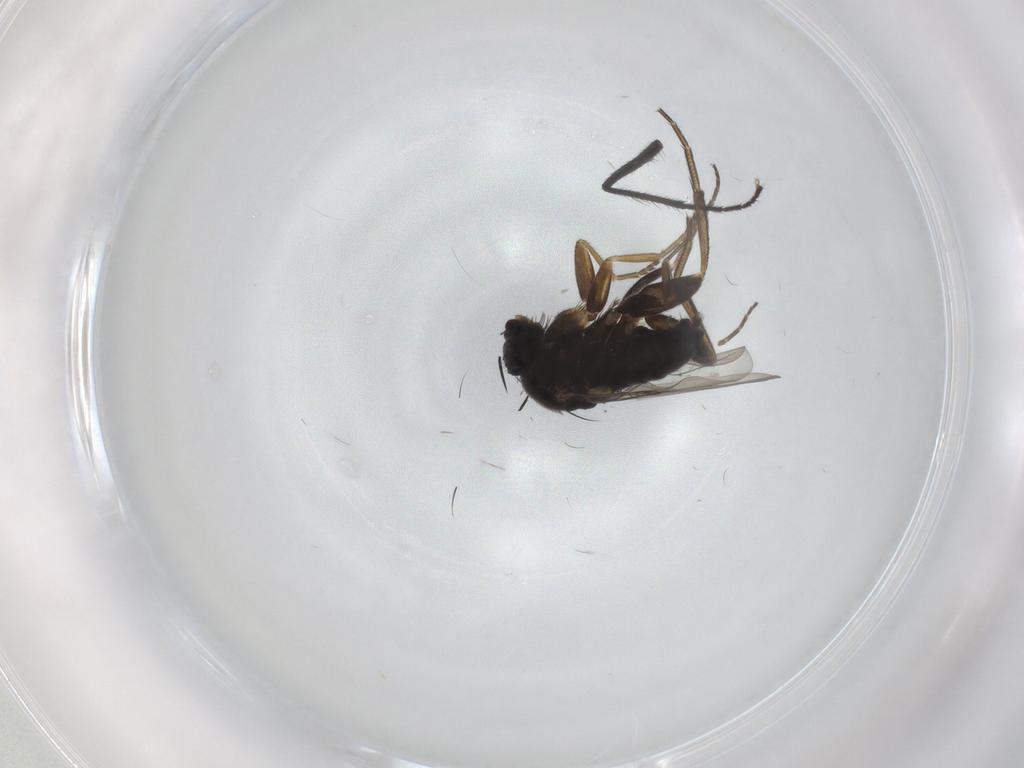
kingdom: Animalia
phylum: Arthropoda
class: Insecta
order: Diptera
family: Phoridae
